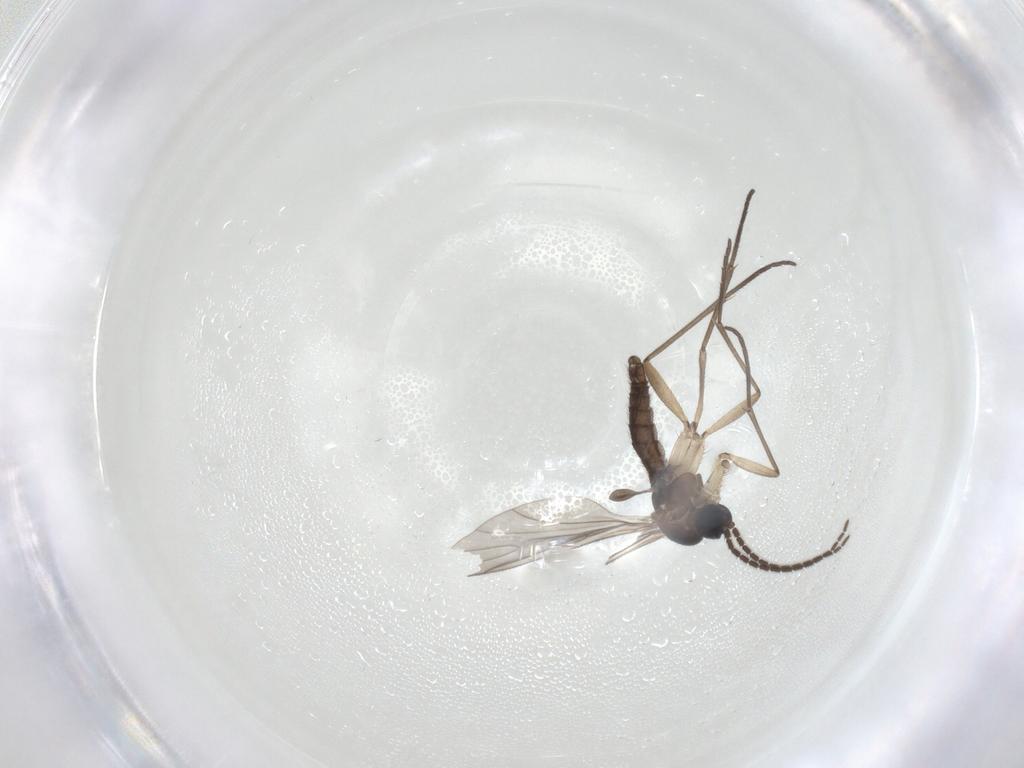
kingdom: Animalia
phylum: Arthropoda
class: Insecta
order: Diptera
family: Sciaridae
